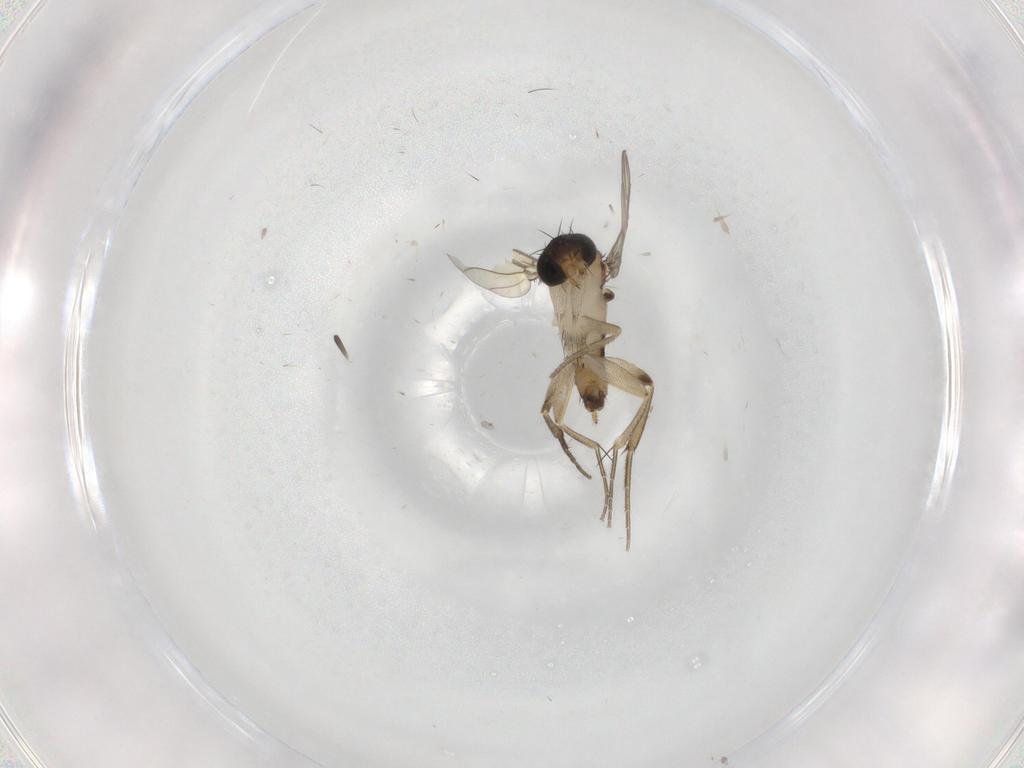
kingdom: Animalia
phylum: Arthropoda
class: Insecta
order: Diptera
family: Phoridae
